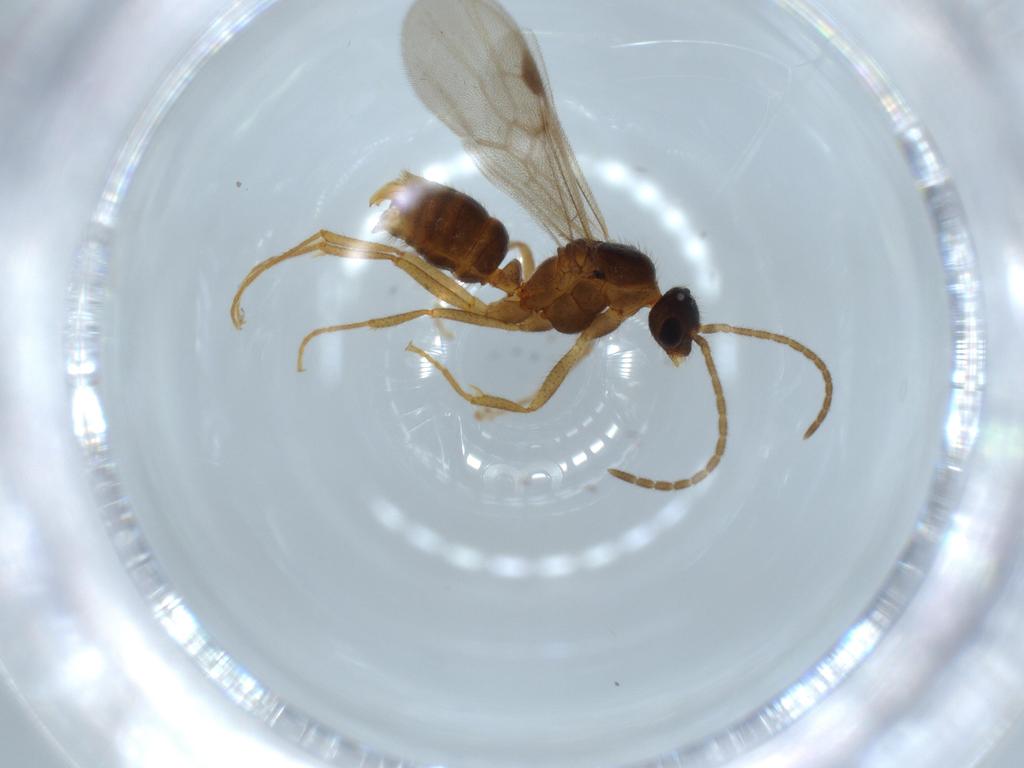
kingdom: Animalia
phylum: Arthropoda
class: Insecta
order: Hymenoptera
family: Formicidae
